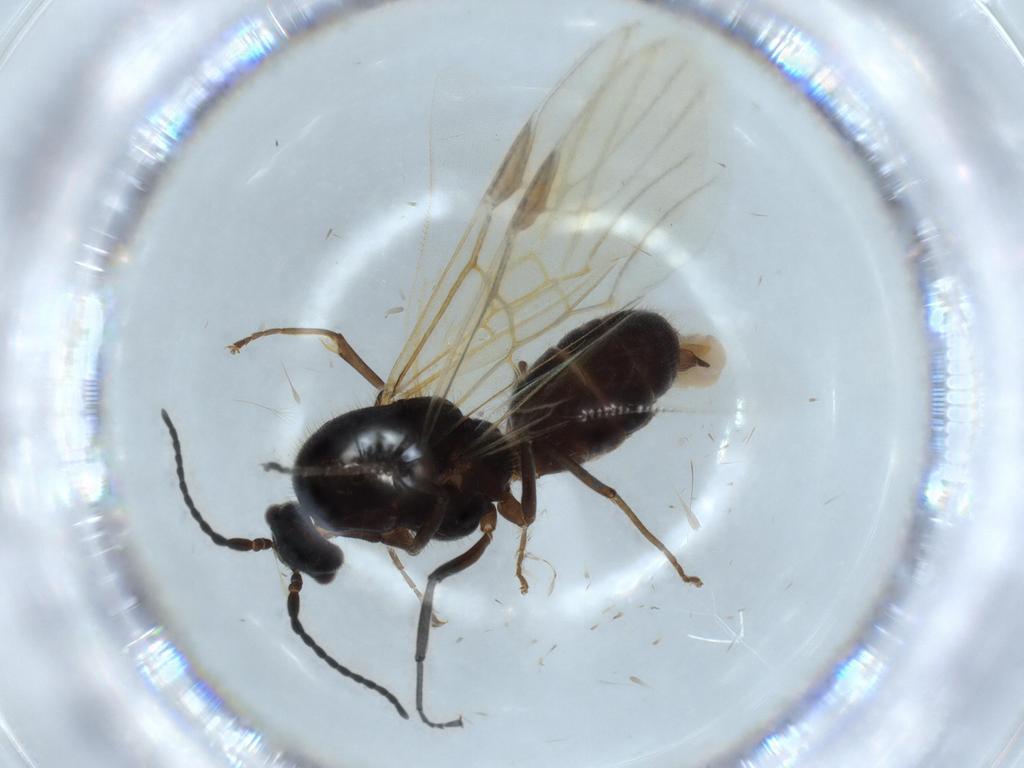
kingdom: Animalia
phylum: Arthropoda
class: Insecta
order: Hymenoptera
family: Formicidae
